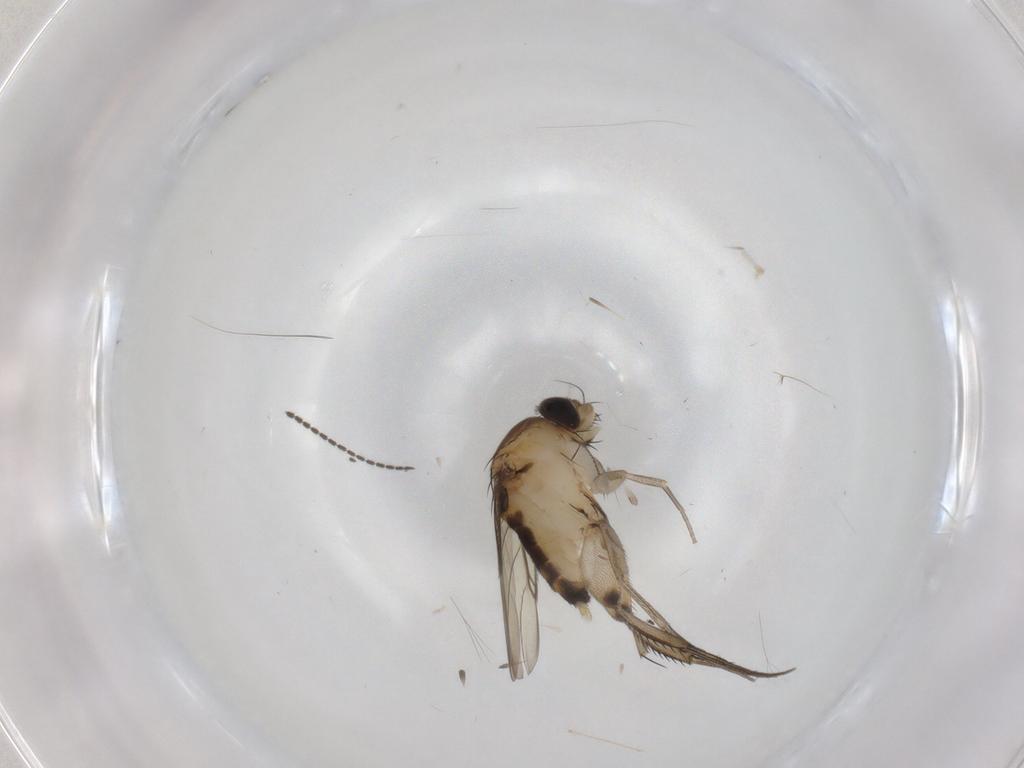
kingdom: Animalia
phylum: Arthropoda
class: Insecta
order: Diptera
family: Phoridae
